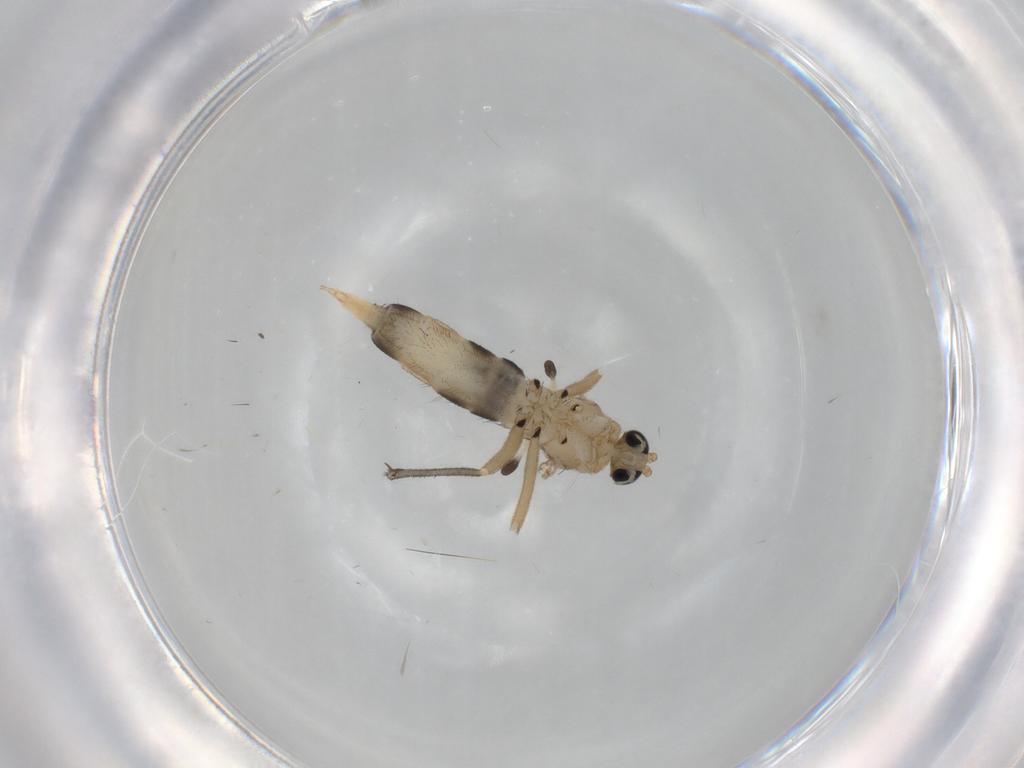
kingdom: Animalia
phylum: Arthropoda
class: Insecta
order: Diptera
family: Sciaridae
